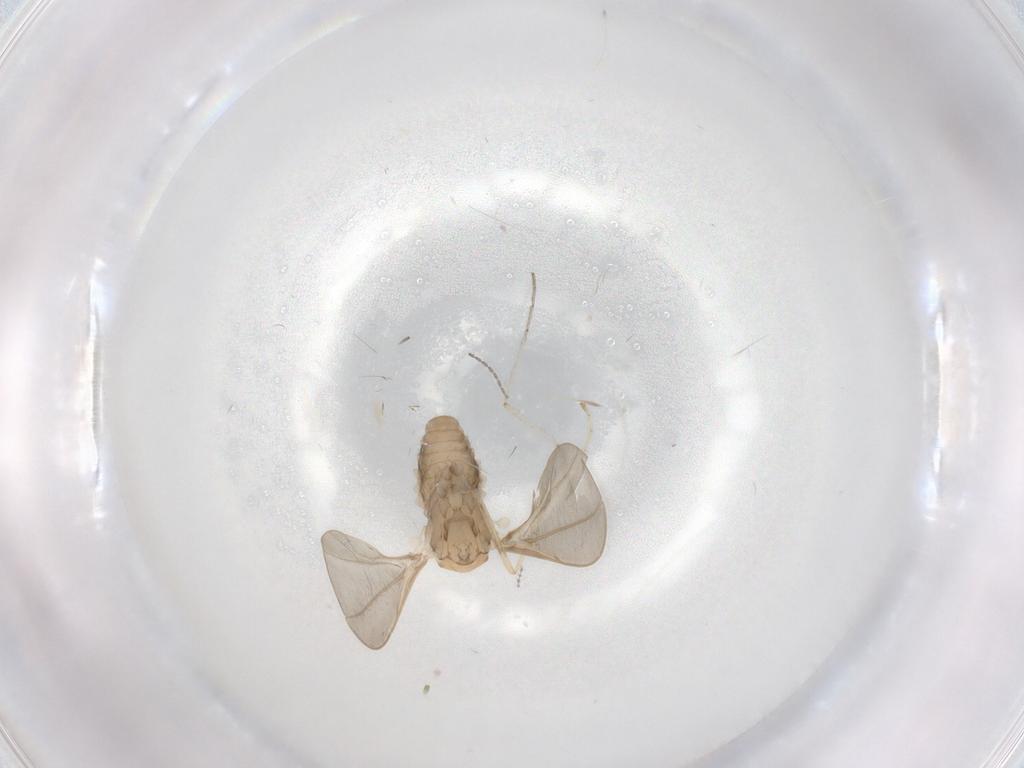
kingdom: Animalia
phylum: Arthropoda
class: Insecta
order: Diptera
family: Cecidomyiidae
